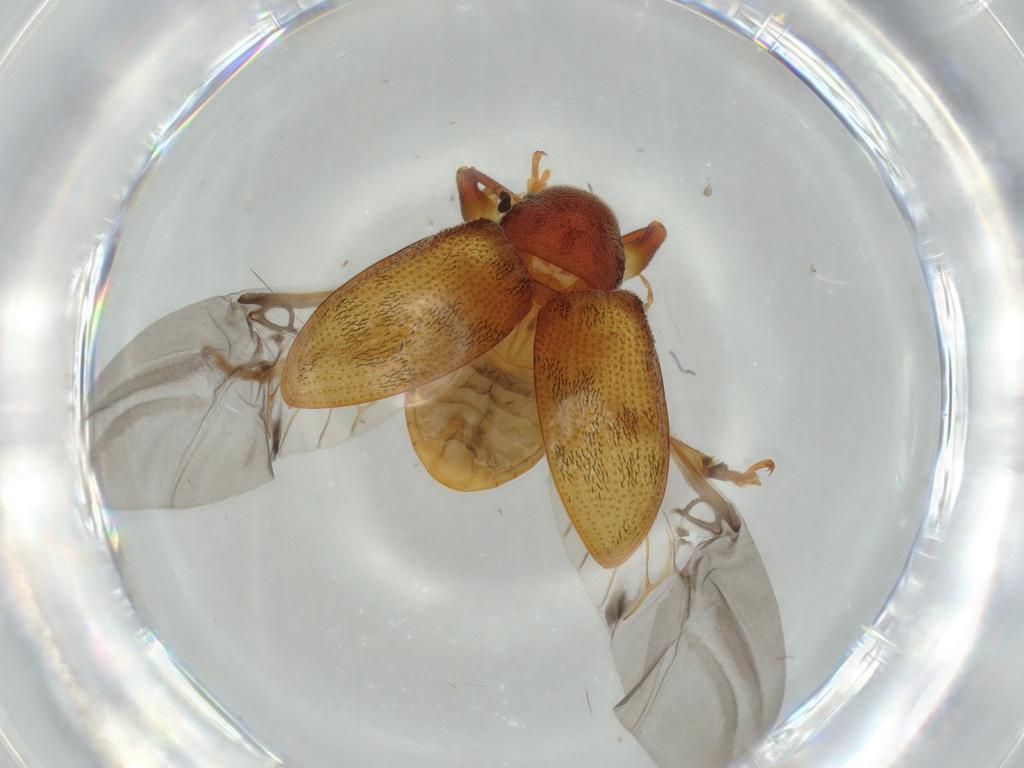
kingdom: Animalia
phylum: Arthropoda
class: Insecta
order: Coleoptera
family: Chrysomelidae
